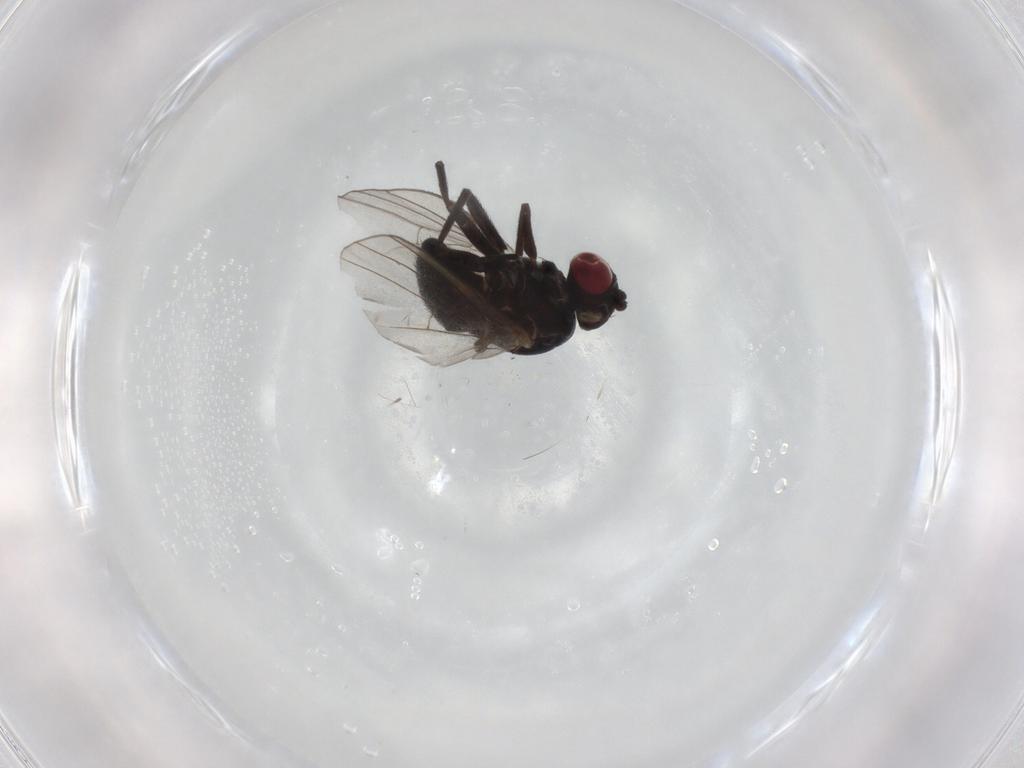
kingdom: Animalia
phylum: Arthropoda
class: Insecta
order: Diptera
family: Agromyzidae
